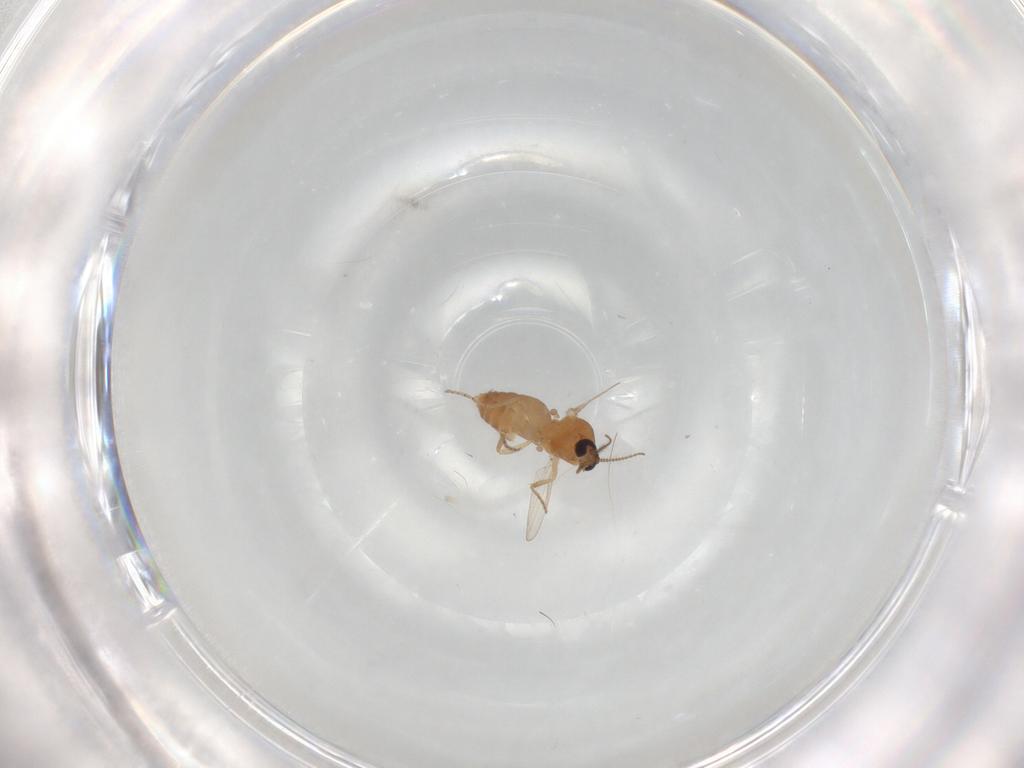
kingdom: Animalia
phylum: Arthropoda
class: Insecta
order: Diptera
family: Ceratopogonidae
